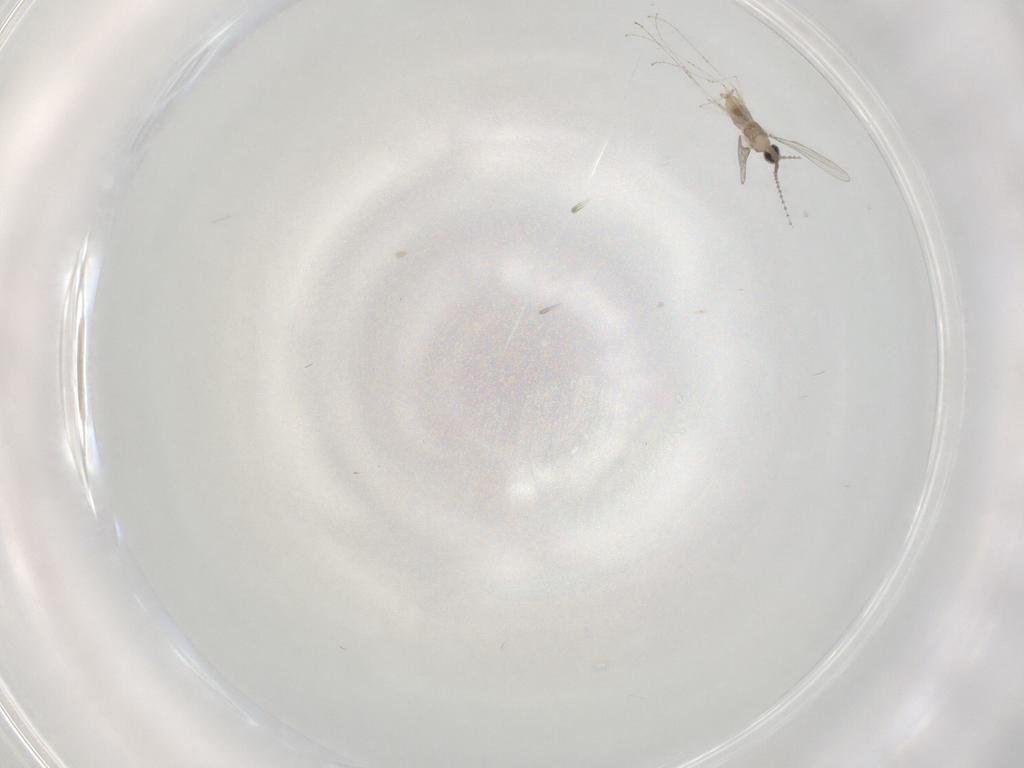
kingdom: Animalia
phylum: Arthropoda
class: Insecta
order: Diptera
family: Cecidomyiidae
